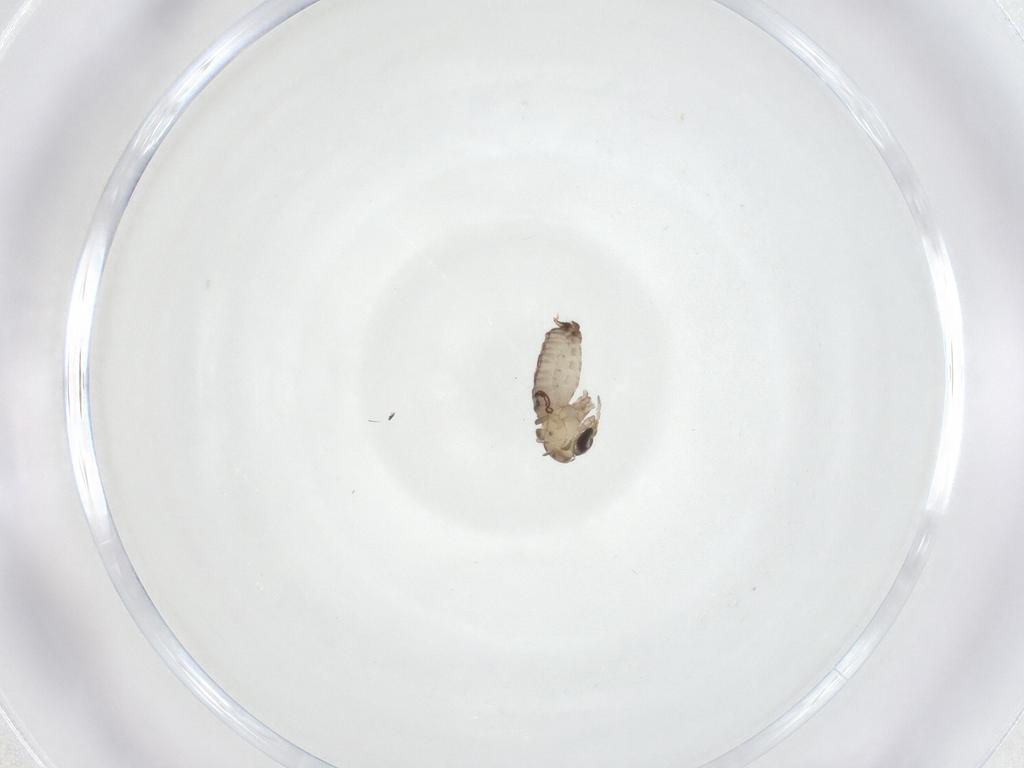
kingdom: Animalia
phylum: Arthropoda
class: Insecta
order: Diptera
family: Psychodidae
